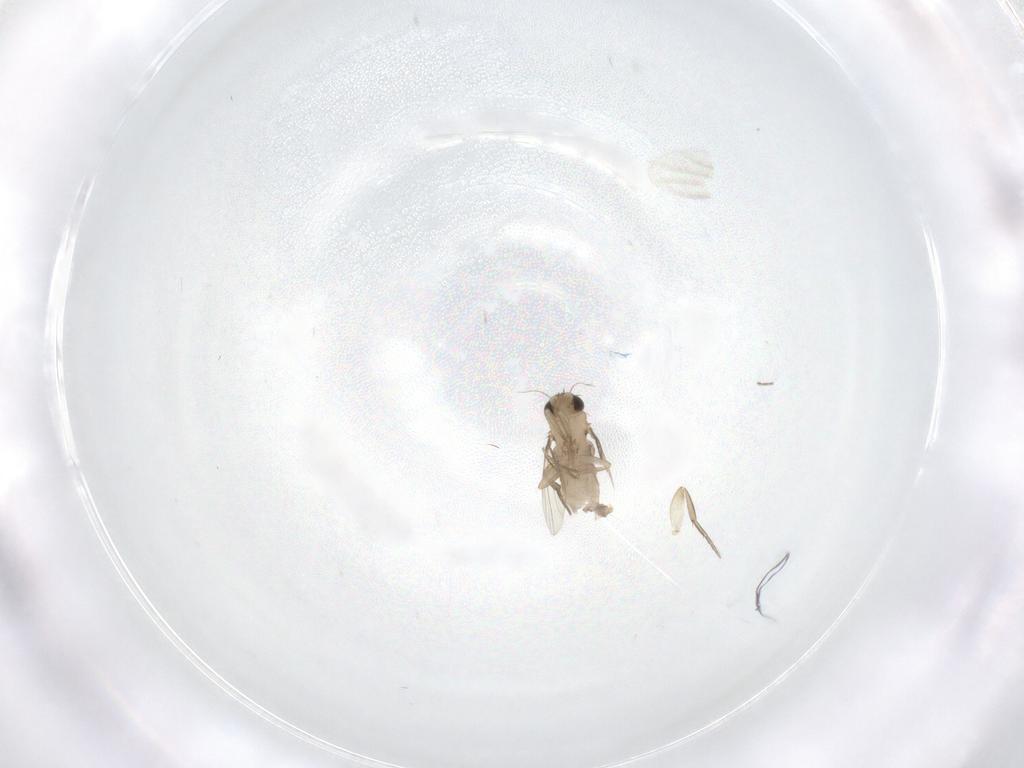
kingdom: Animalia
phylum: Arthropoda
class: Insecta
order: Diptera
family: Phoridae
